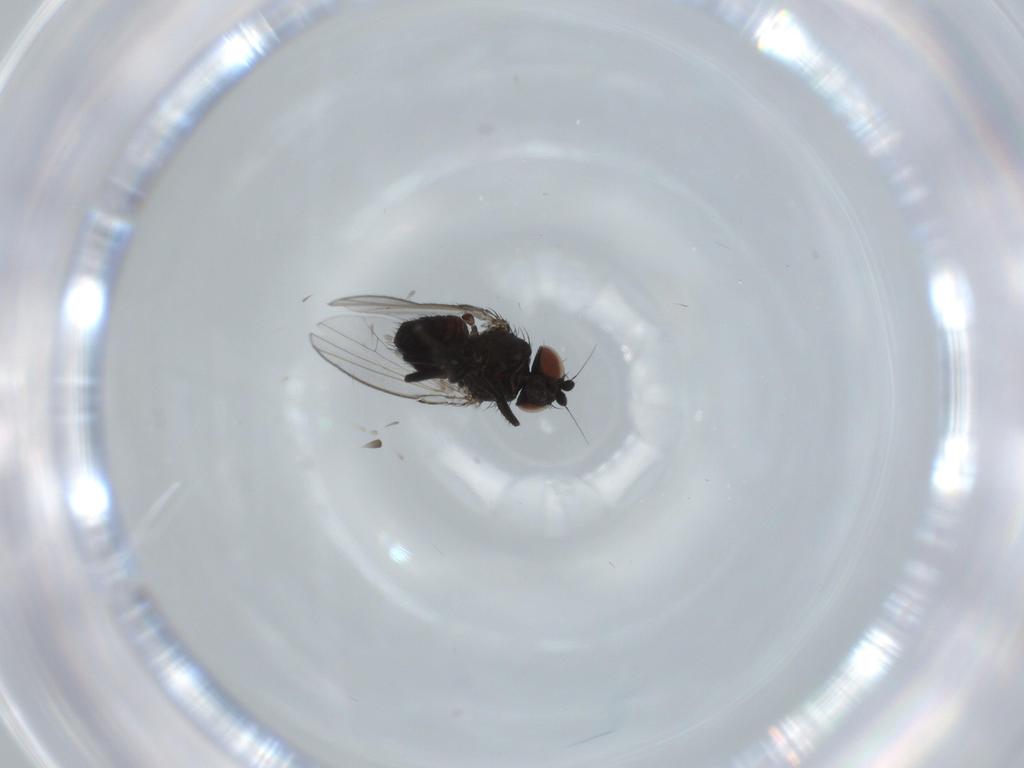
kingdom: Animalia
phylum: Arthropoda
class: Insecta
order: Diptera
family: Milichiidae
